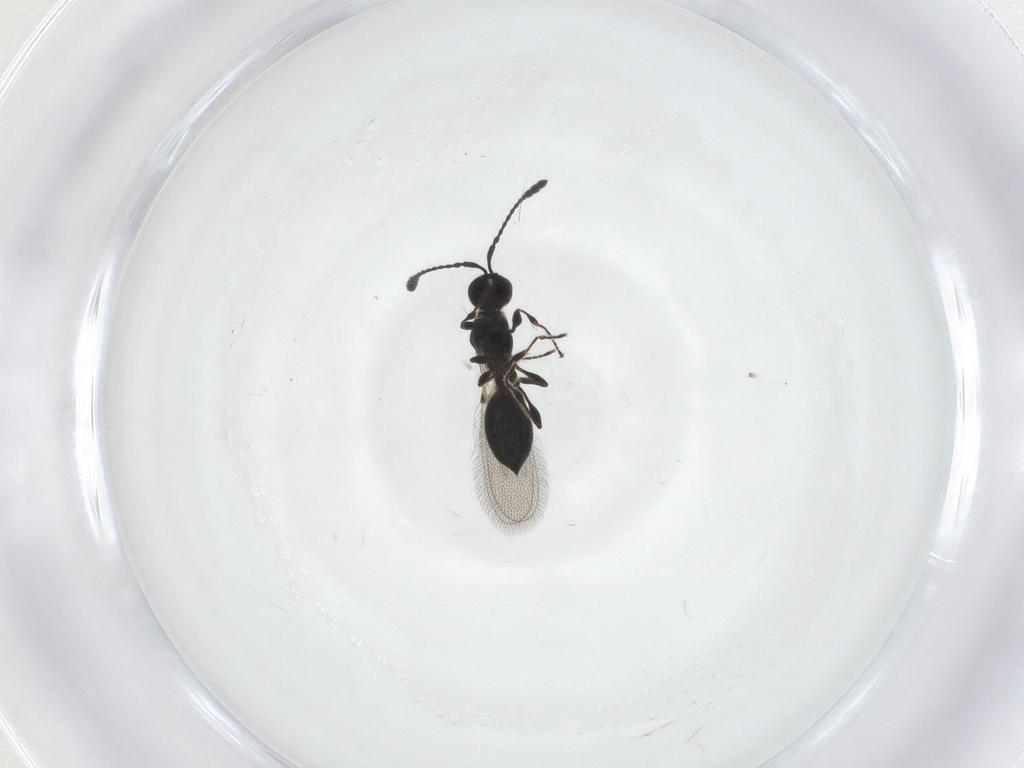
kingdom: Animalia
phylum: Arthropoda
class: Insecta
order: Hymenoptera
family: Diapriidae
